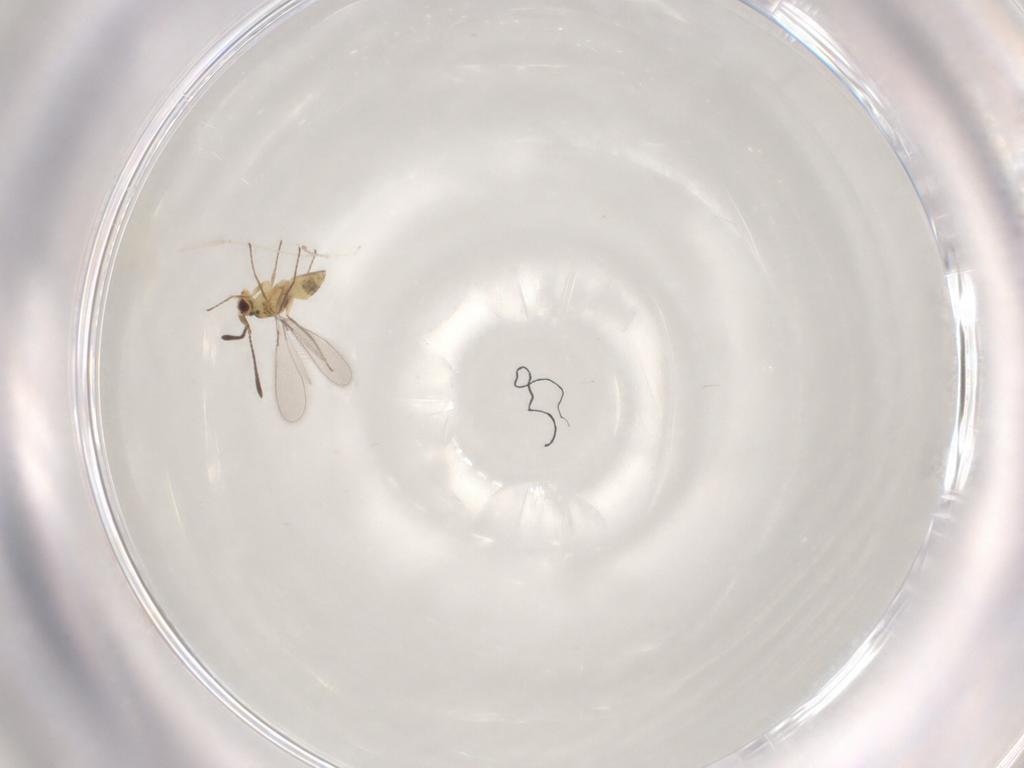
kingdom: Animalia
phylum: Arthropoda
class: Insecta
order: Hymenoptera
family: Mymaridae
